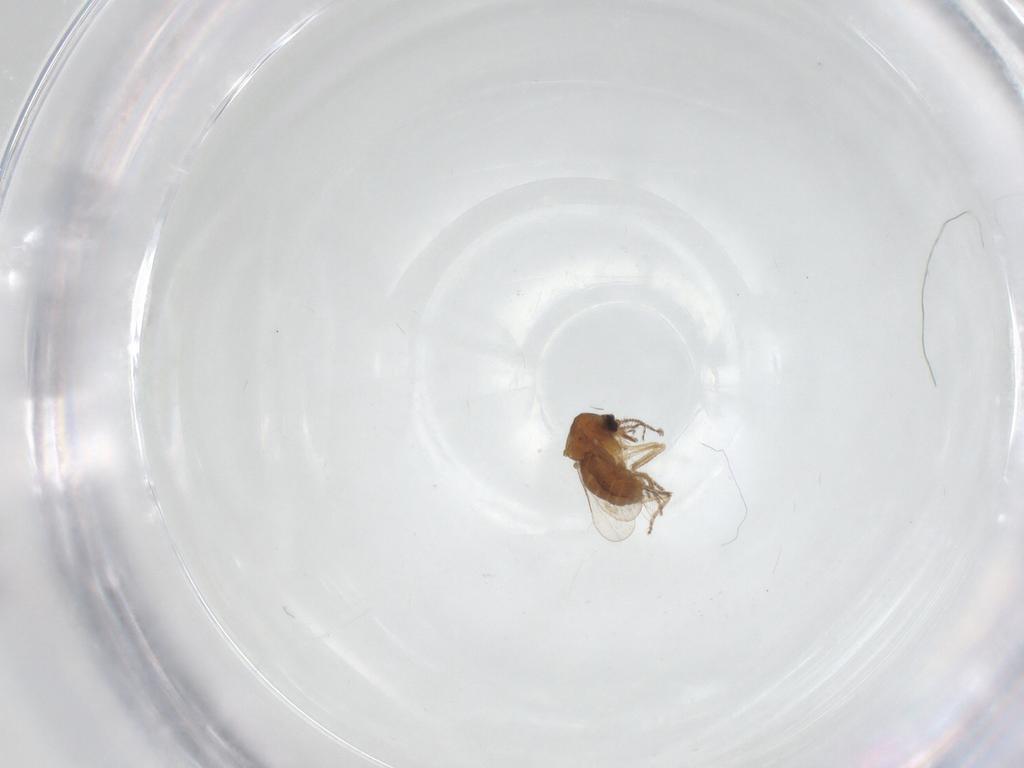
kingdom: Animalia
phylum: Arthropoda
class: Insecta
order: Diptera
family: Ceratopogonidae
